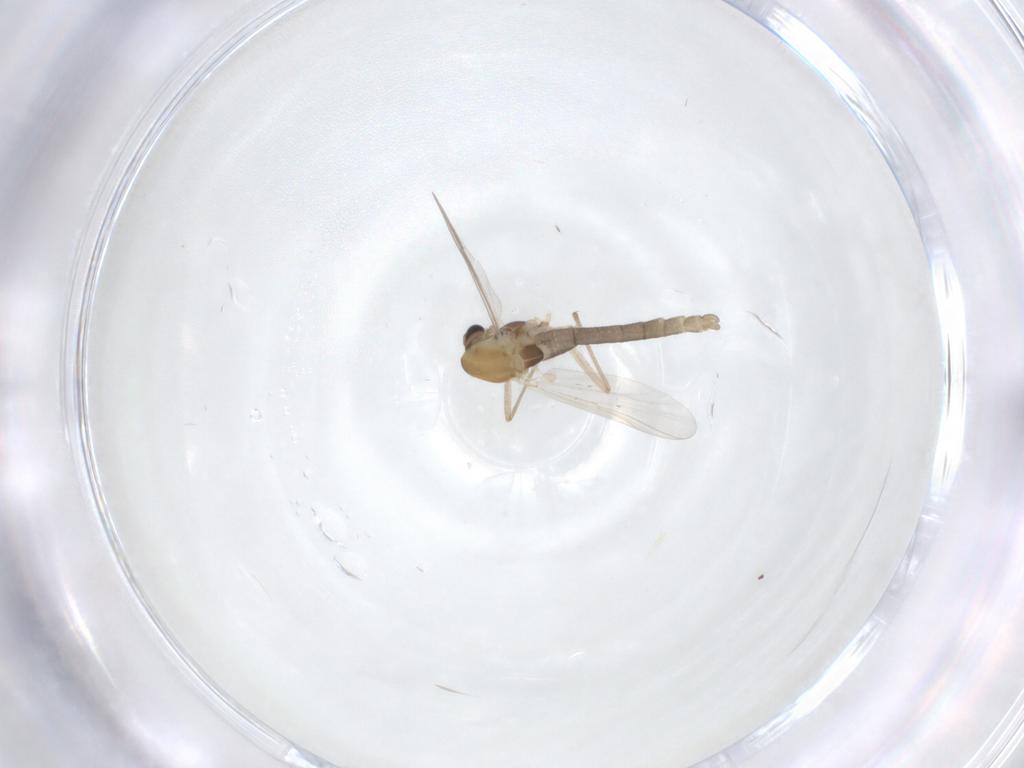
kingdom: Animalia
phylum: Arthropoda
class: Insecta
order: Diptera
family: Chironomidae
